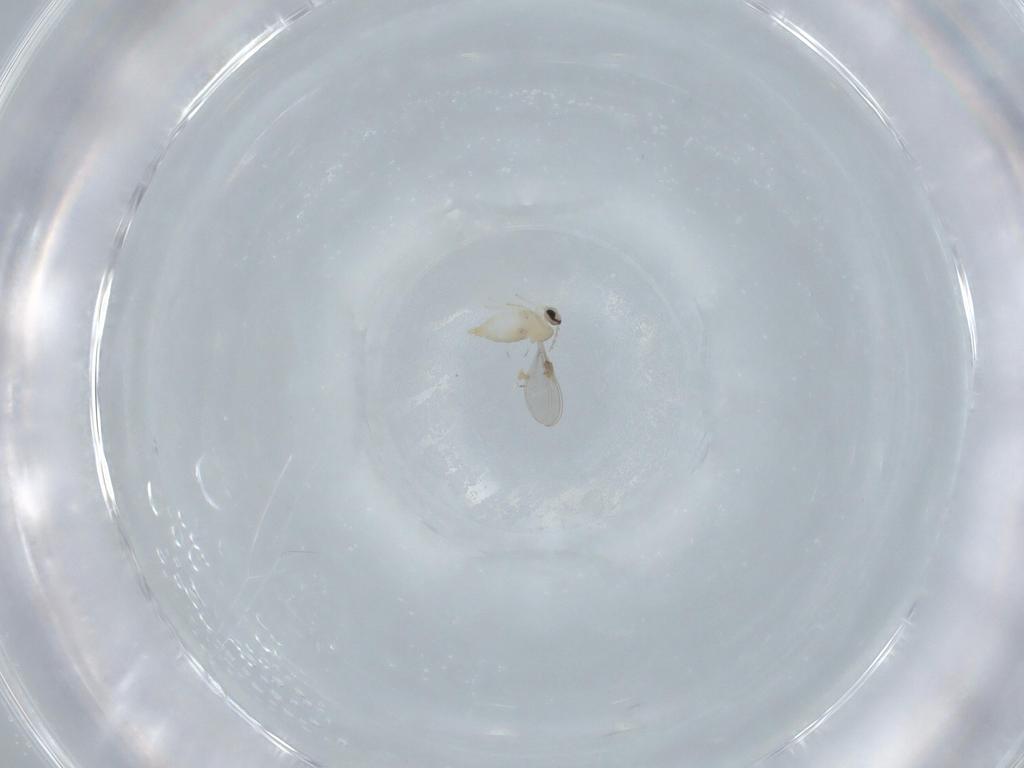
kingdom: Animalia
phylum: Arthropoda
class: Insecta
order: Diptera
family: Cecidomyiidae
